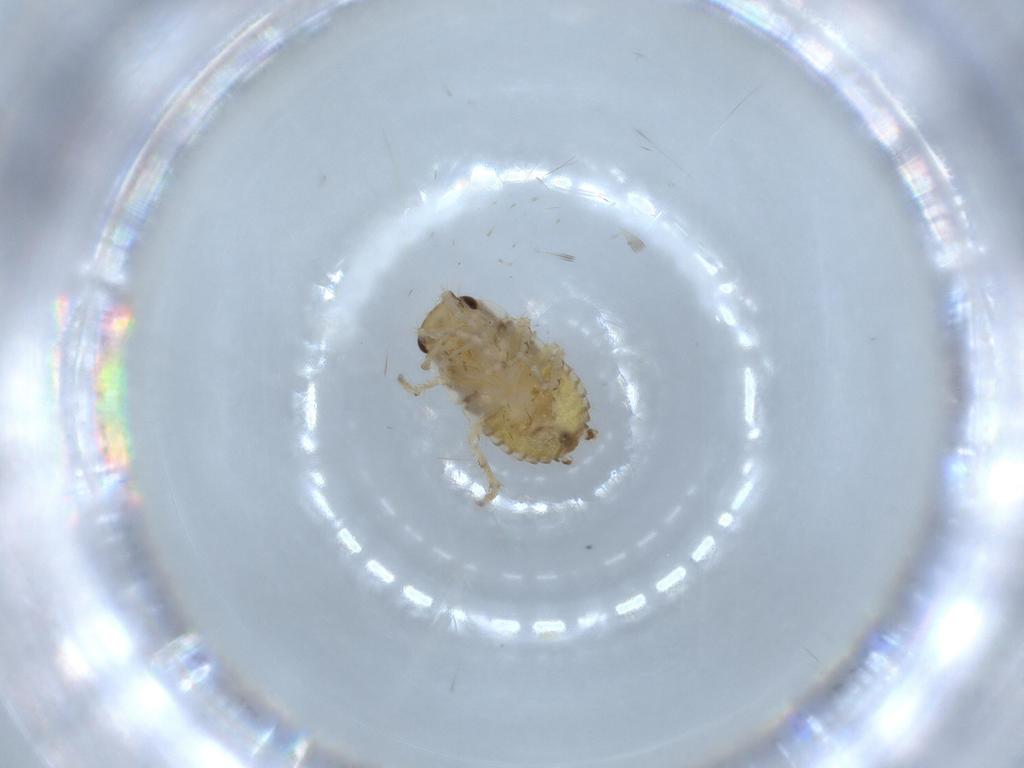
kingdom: Animalia
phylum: Arthropoda
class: Insecta
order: Blattodea
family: Ectobiidae
